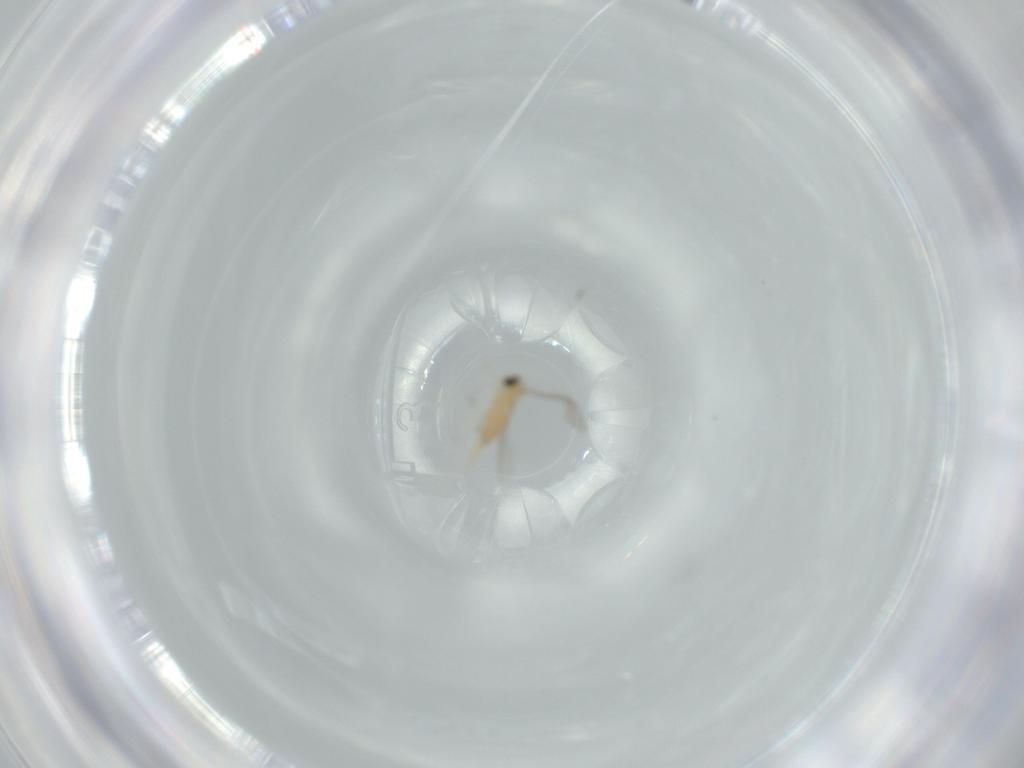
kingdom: Animalia
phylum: Arthropoda
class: Insecta
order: Diptera
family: Cecidomyiidae
